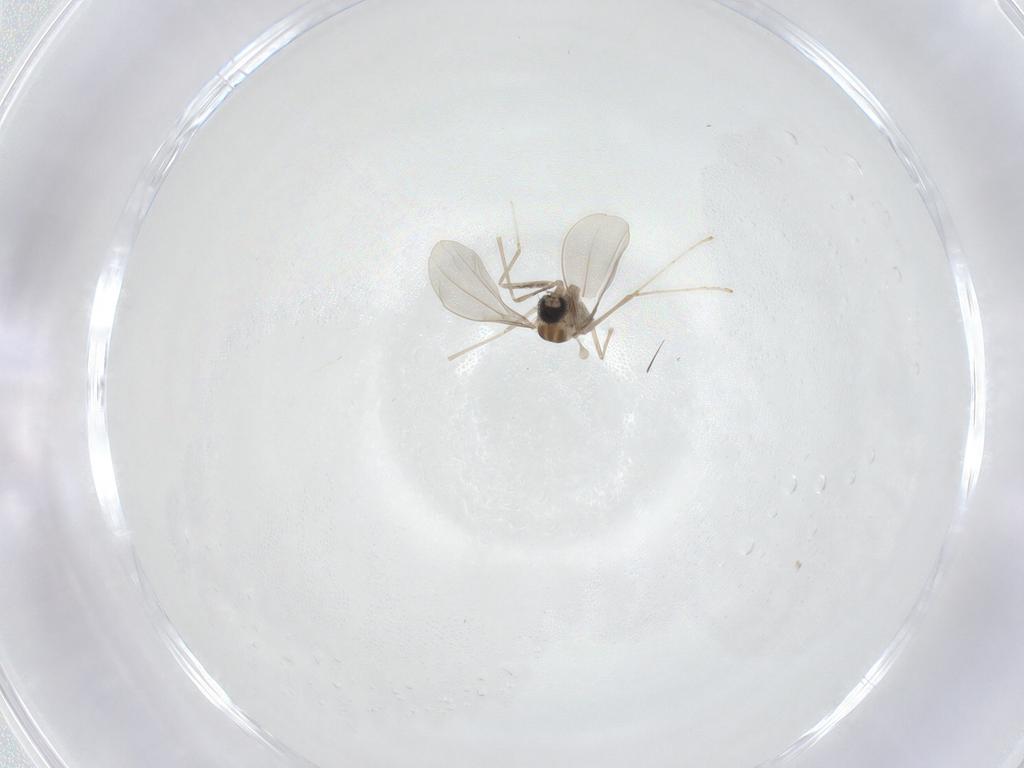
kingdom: Animalia
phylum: Arthropoda
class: Insecta
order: Diptera
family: Cecidomyiidae
